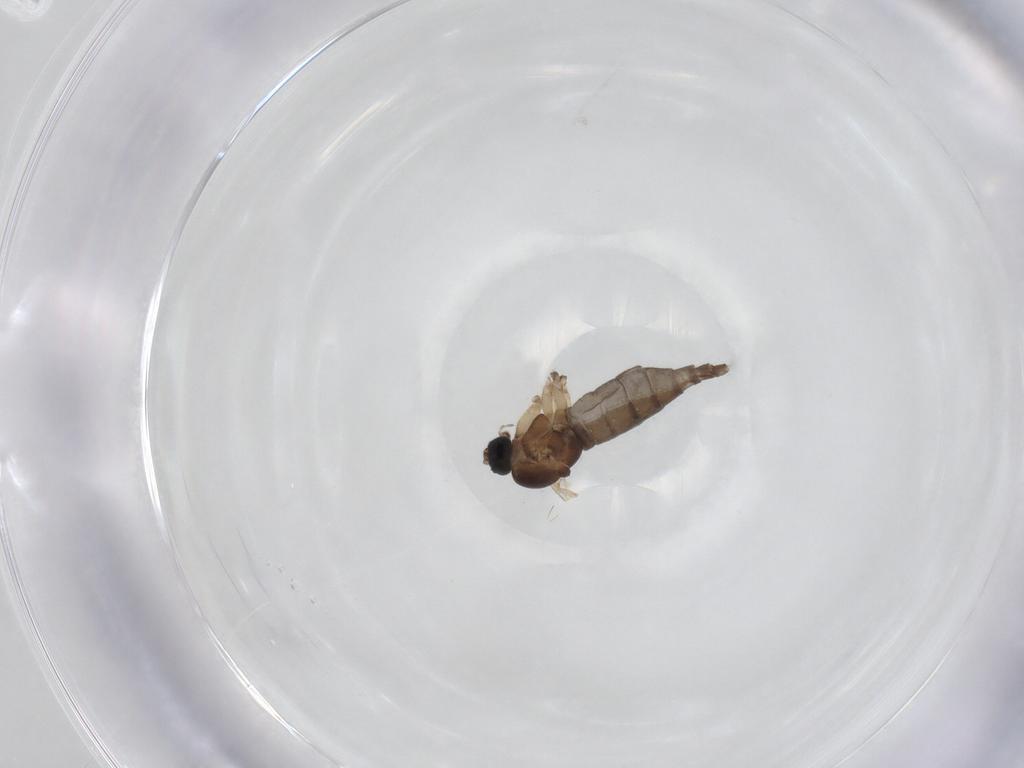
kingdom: Animalia
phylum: Arthropoda
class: Insecta
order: Diptera
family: Sciaridae
